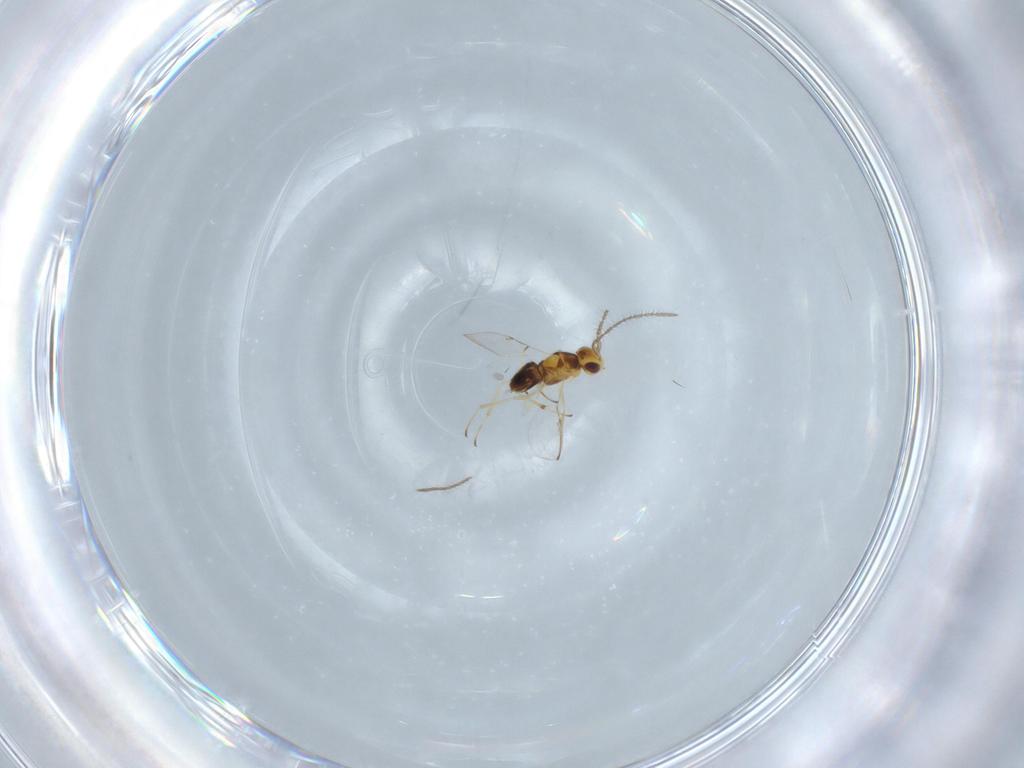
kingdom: Animalia
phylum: Arthropoda
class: Insecta
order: Hymenoptera
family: Encyrtidae
